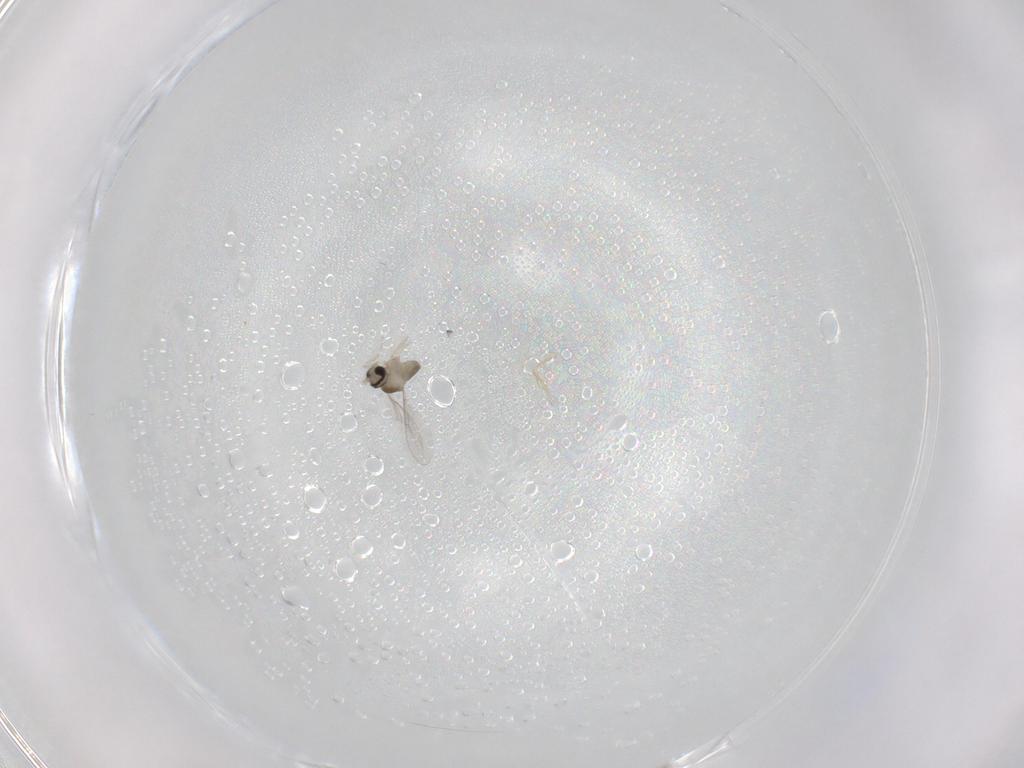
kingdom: Animalia
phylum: Arthropoda
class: Insecta
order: Diptera
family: Cecidomyiidae
